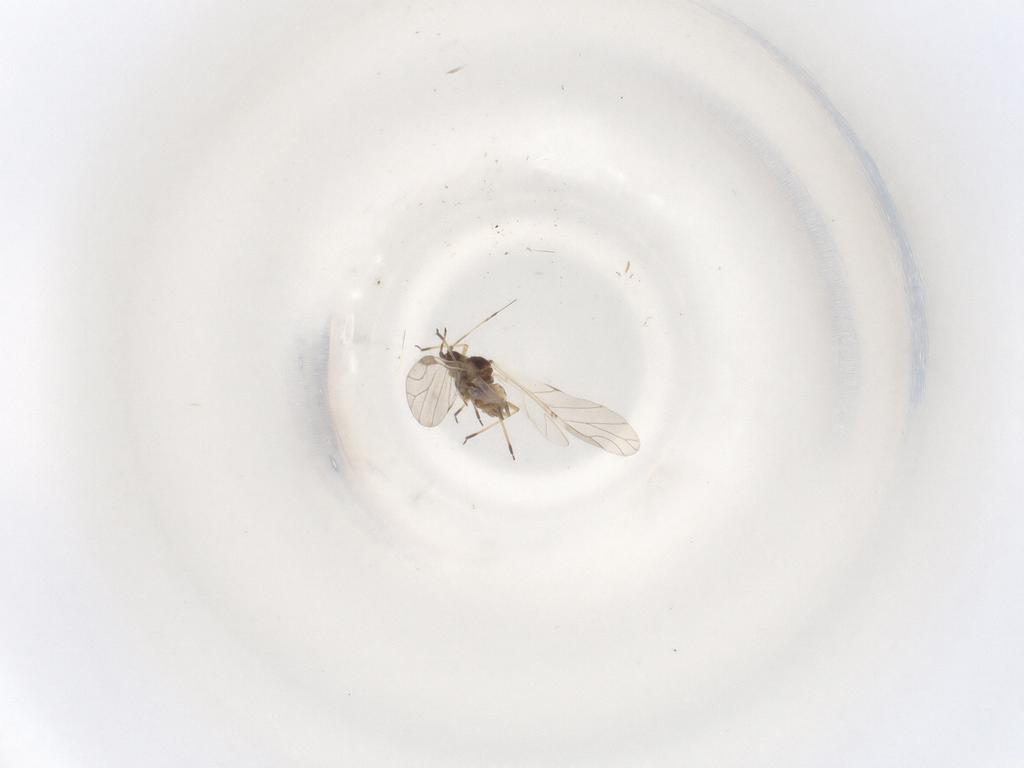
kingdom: Animalia
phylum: Arthropoda
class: Insecta
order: Hemiptera
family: Aphididae
